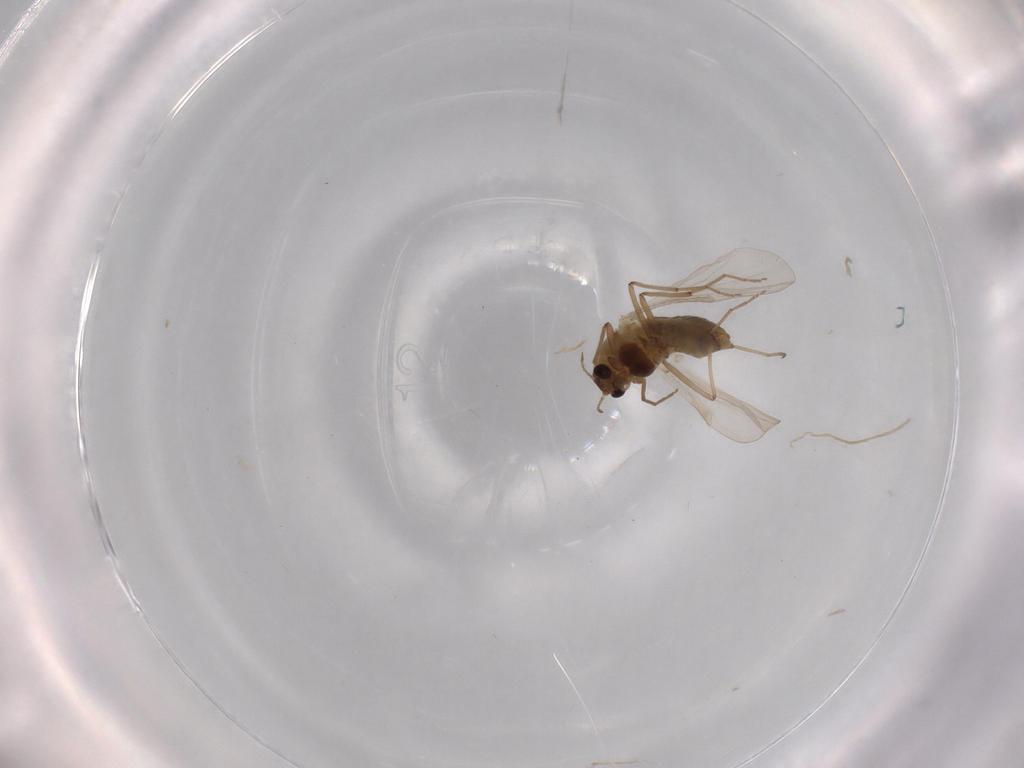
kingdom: Animalia
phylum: Arthropoda
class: Insecta
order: Diptera
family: Chironomidae
